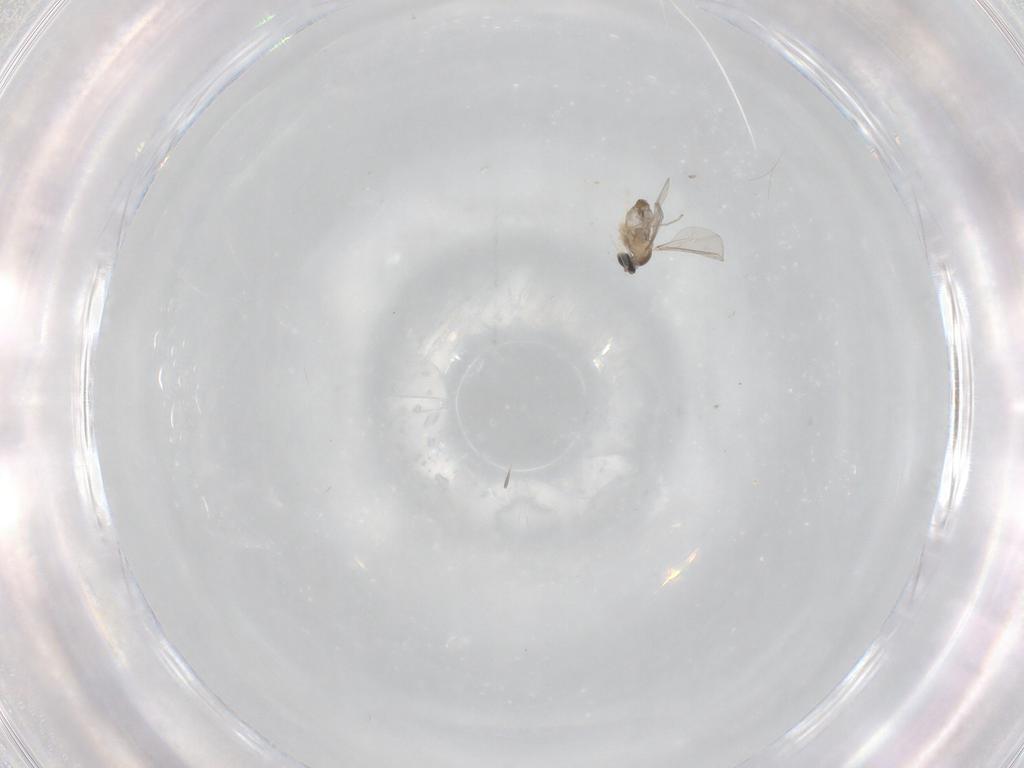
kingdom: Animalia
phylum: Arthropoda
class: Insecta
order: Diptera
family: Cecidomyiidae
